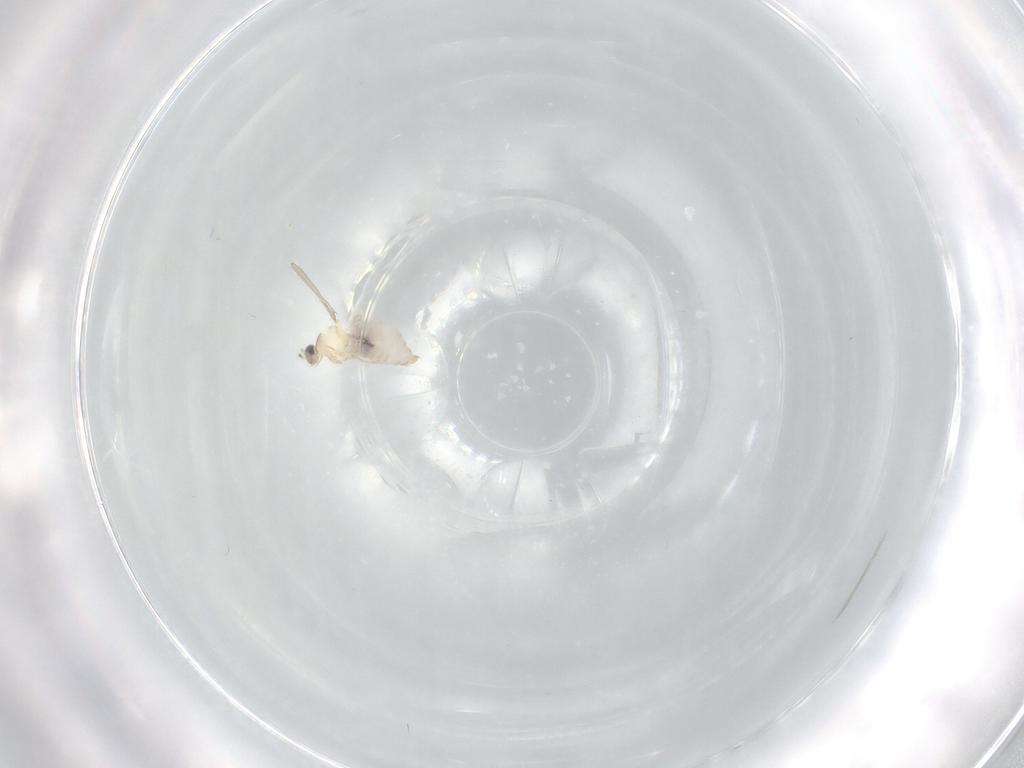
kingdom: Animalia
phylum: Arthropoda
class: Insecta
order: Diptera
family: Cecidomyiidae
